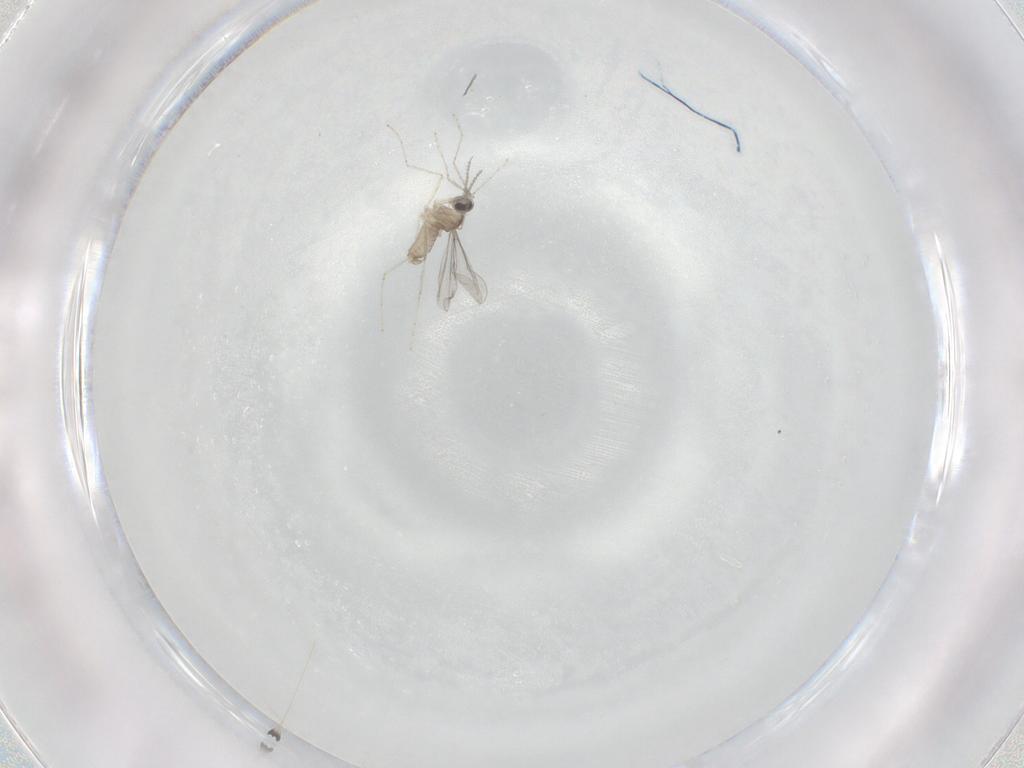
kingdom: Animalia
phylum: Arthropoda
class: Insecta
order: Diptera
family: Cecidomyiidae
